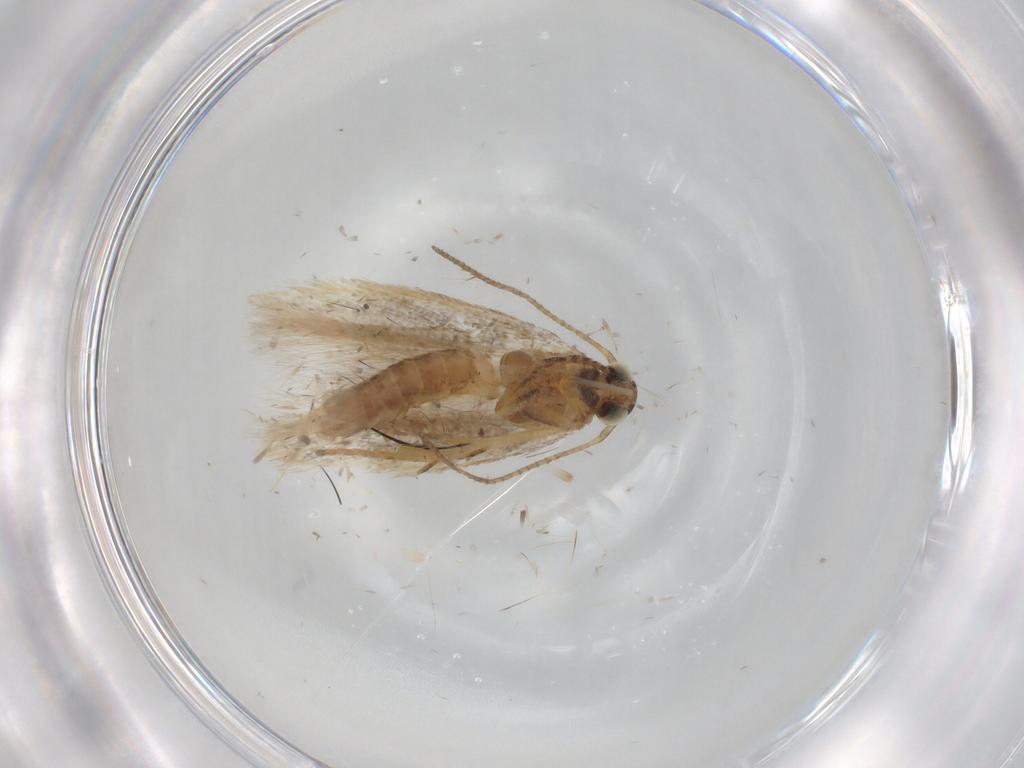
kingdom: Animalia
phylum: Arthropoda
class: Insecta
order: Lepidoptera
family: Gelechiidae
